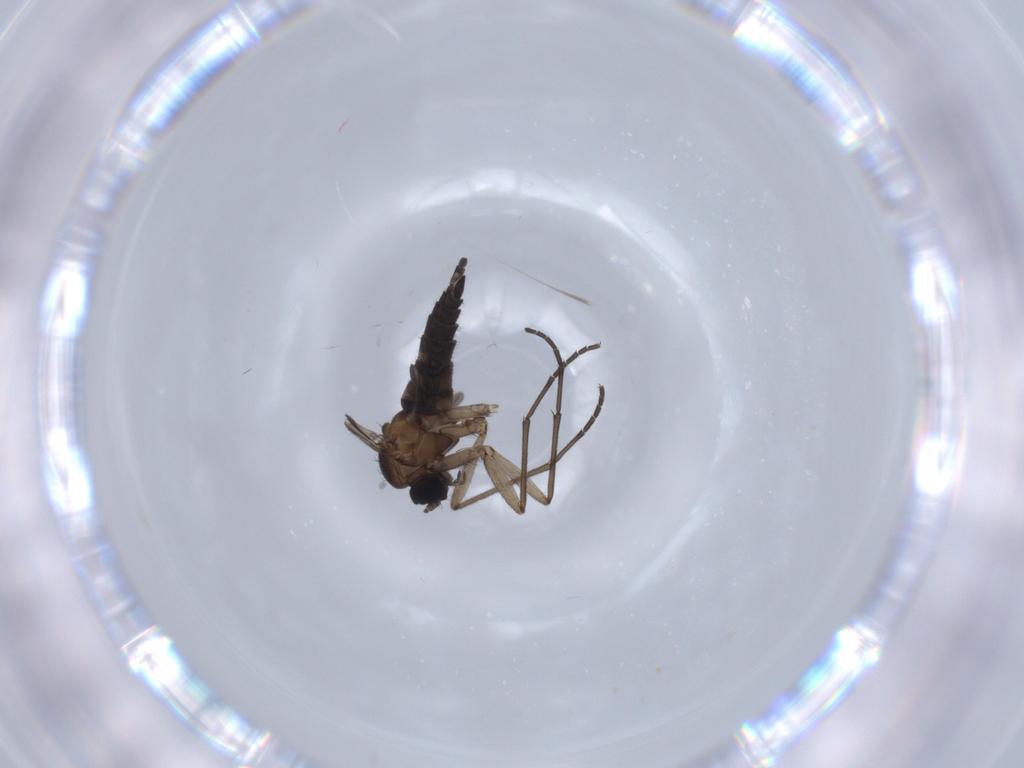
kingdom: Animalia
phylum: Arthropoda
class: Insecta
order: Diptera
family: Sciaridae
